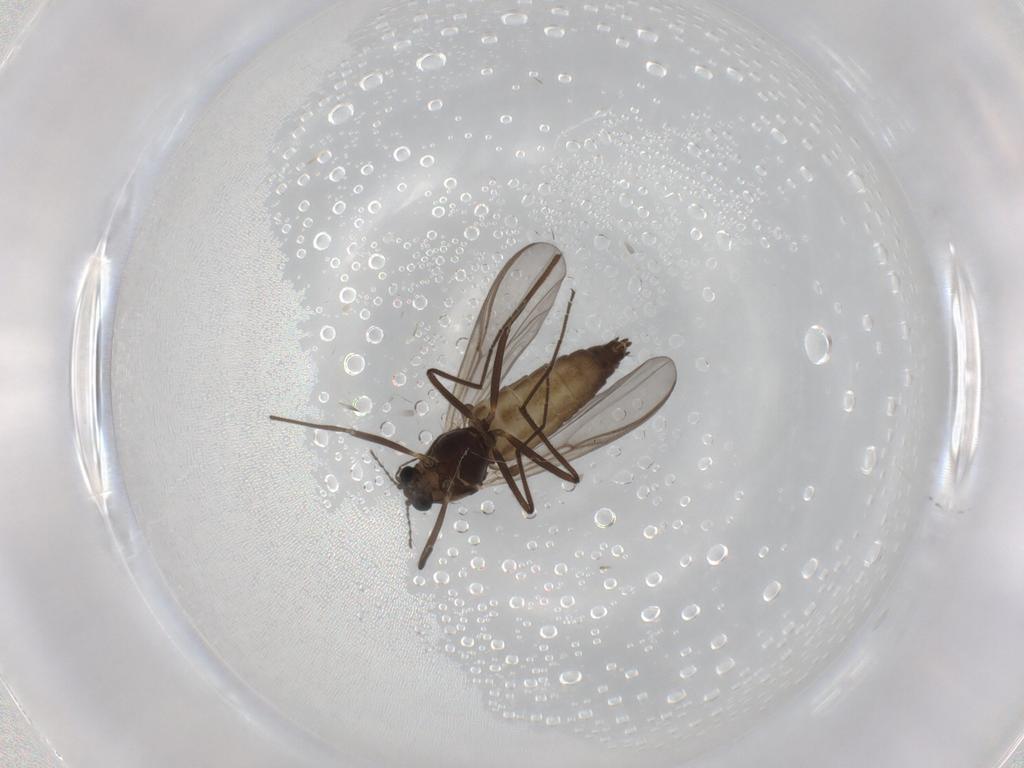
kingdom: Animalia
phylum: Arthropoda
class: Insecta
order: Diptera
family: Chironomidae
